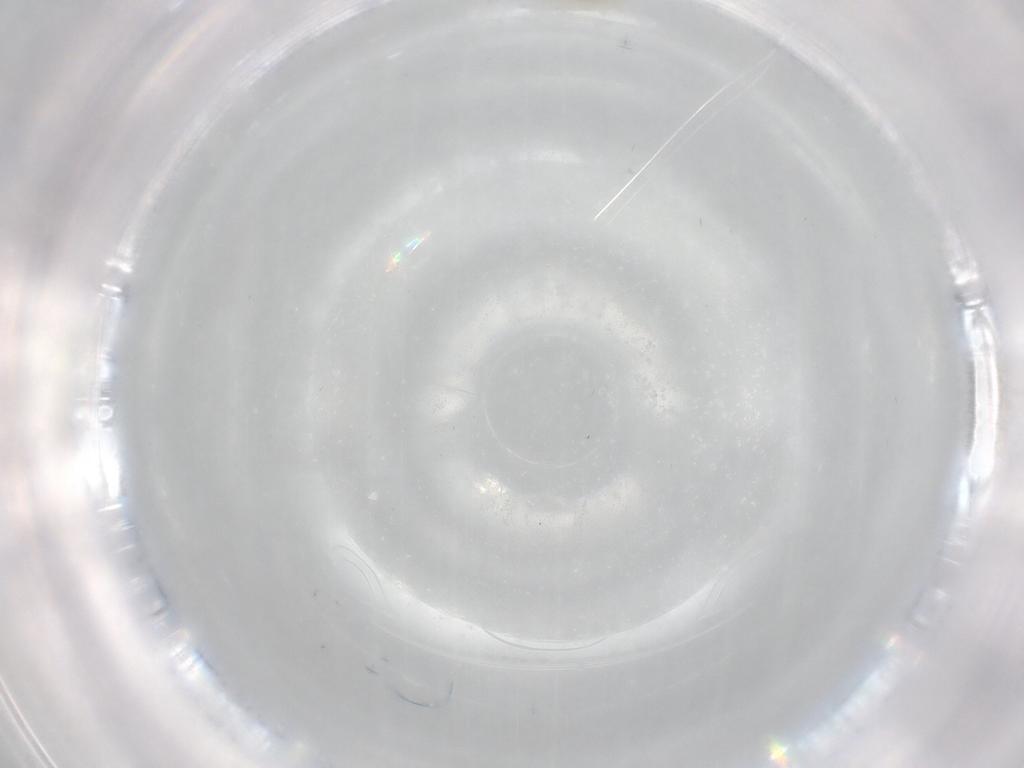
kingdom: Animalia
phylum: Arthropoda
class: Insecta
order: Diptera
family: Ceratopogonidae
